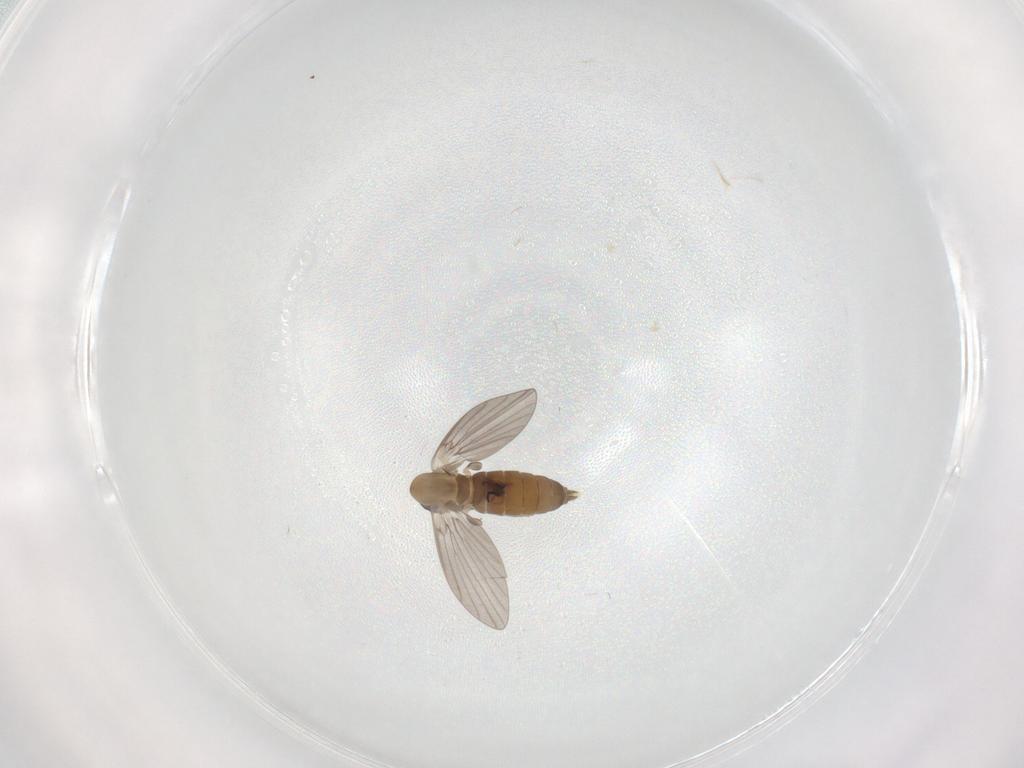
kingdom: Animalia
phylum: Arthropoda
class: Insecta
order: Diptera
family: Psychodidae
